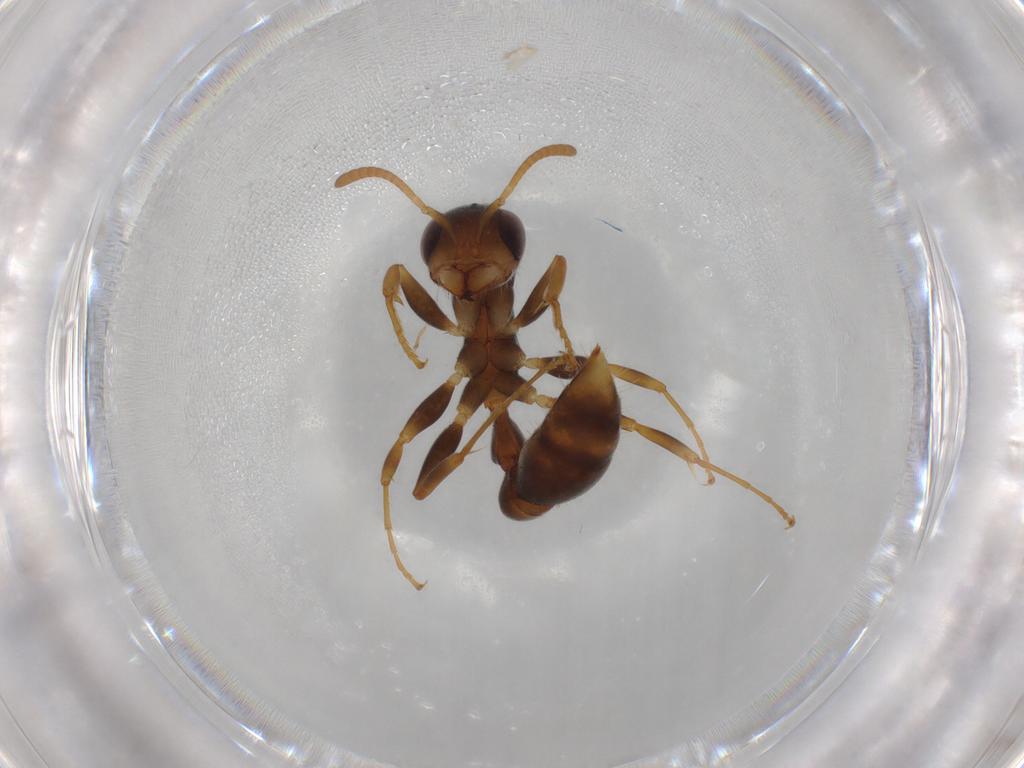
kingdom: Animalia
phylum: Arthropoda
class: Insecta
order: Hymenoptera
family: Formicidae
